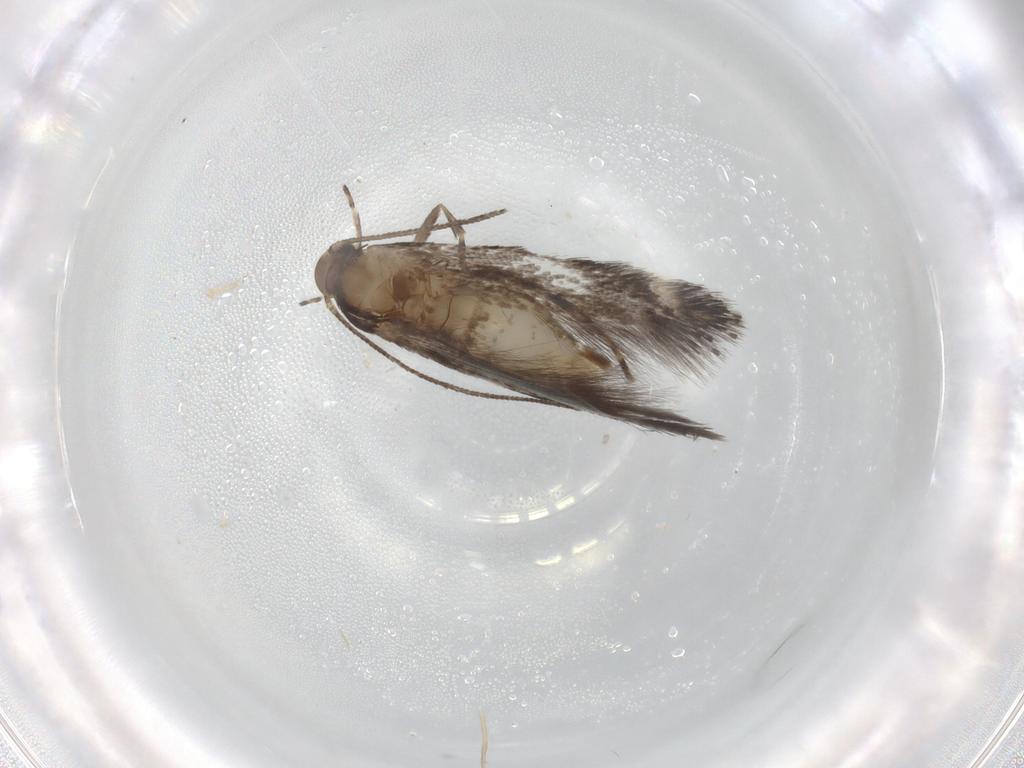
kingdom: Animalia
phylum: Arthropoda
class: Insecta
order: Lepidoptera
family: Elachistidae
